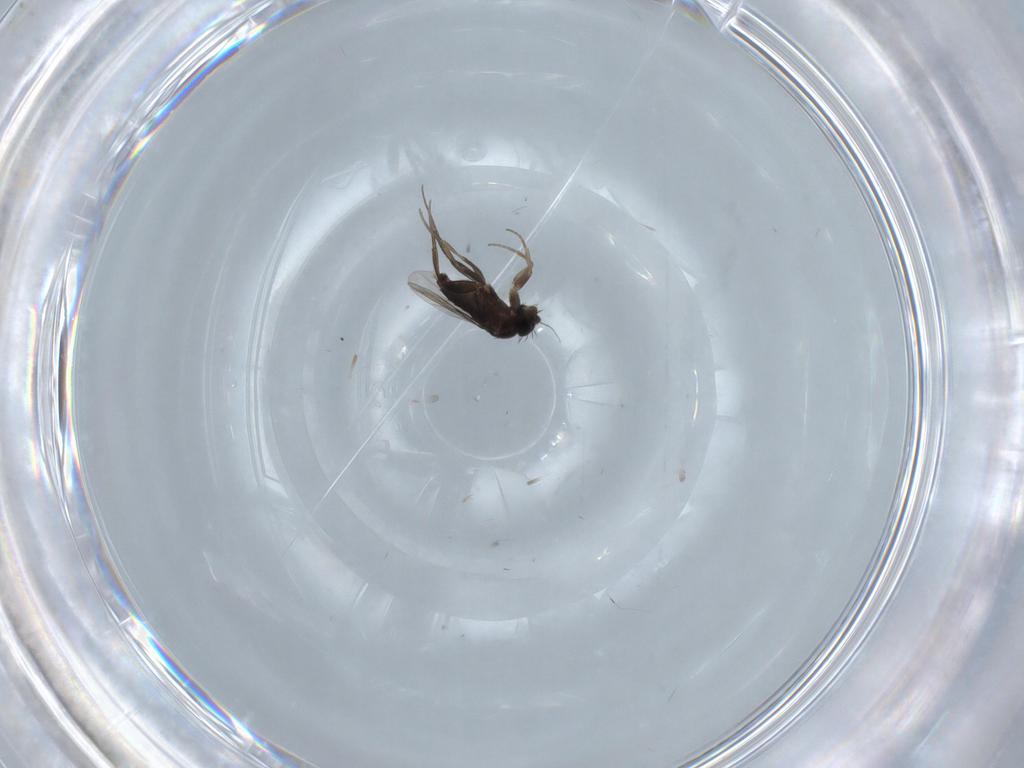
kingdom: Animalia
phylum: Arthropoda
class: Insecta
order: Diptera
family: Phoridae
